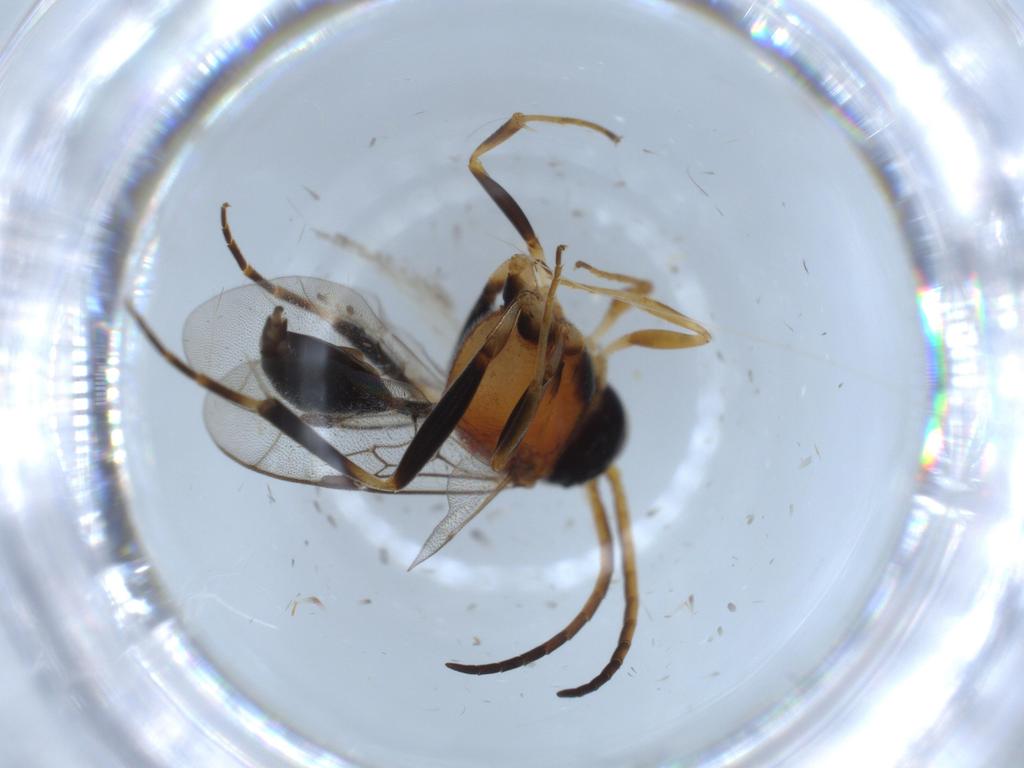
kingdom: Animalia
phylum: Arthropoda
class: Insecta
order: Hymenoptera
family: Evaniidae
